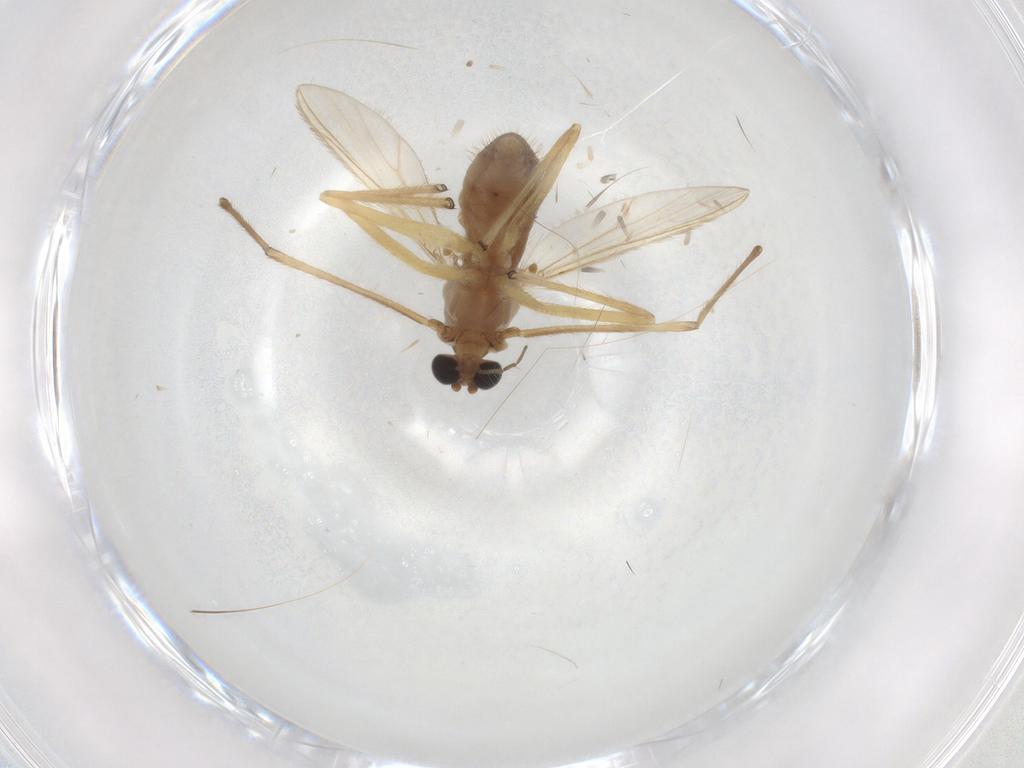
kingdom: Animalia
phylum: Arthropoda
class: Insecta
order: Diptera
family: Chironomidae
